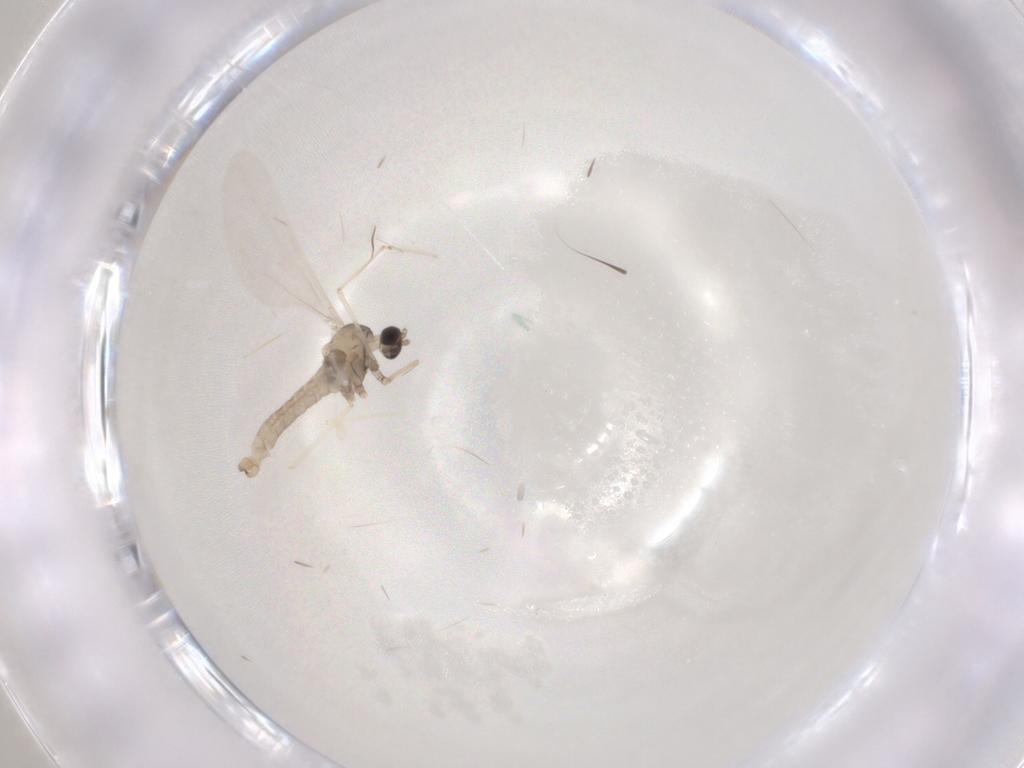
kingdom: Animalia
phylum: Arthropoda
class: Insecta
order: Diptera
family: Cecidomyiidae
